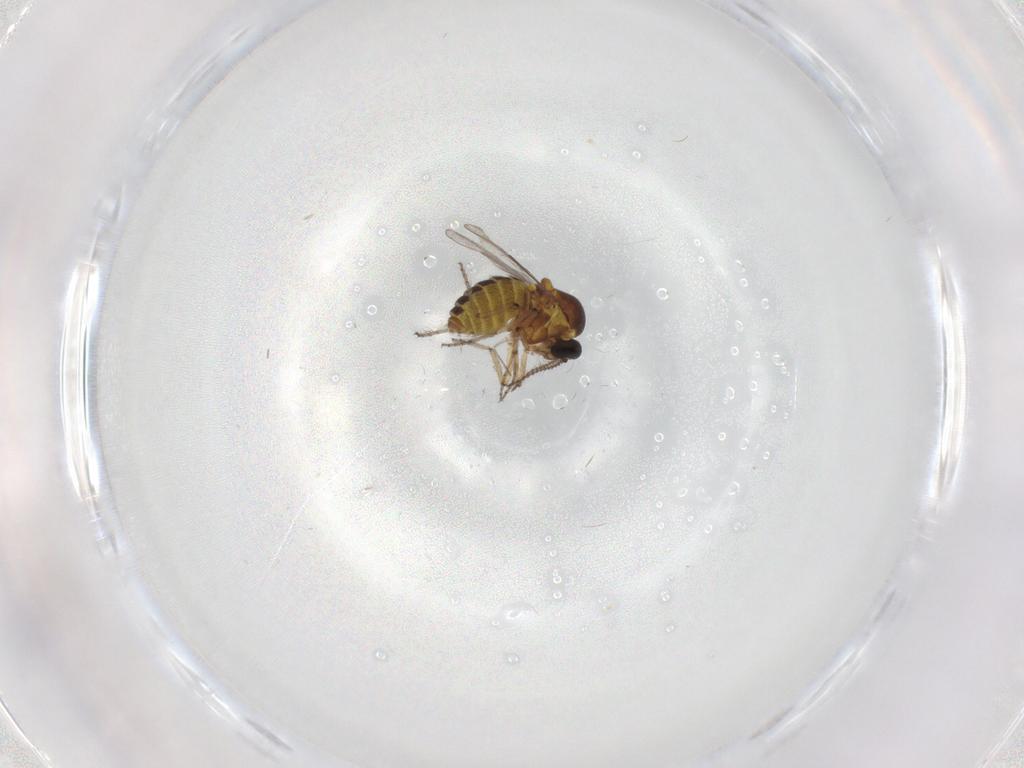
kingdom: Animalia
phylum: Arthropoda
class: Insecta
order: Diptera
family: Ceratopogonidae
